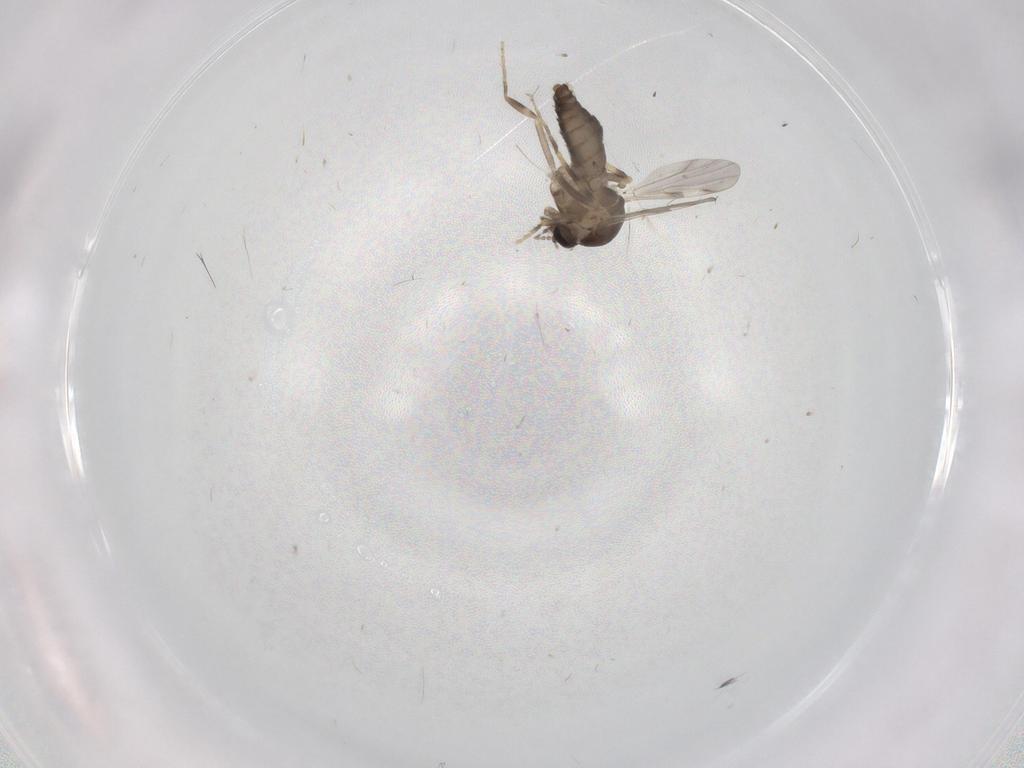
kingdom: Animalia
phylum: Arthropoda
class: Insecta
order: Diptera
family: Ceratopogonidae
